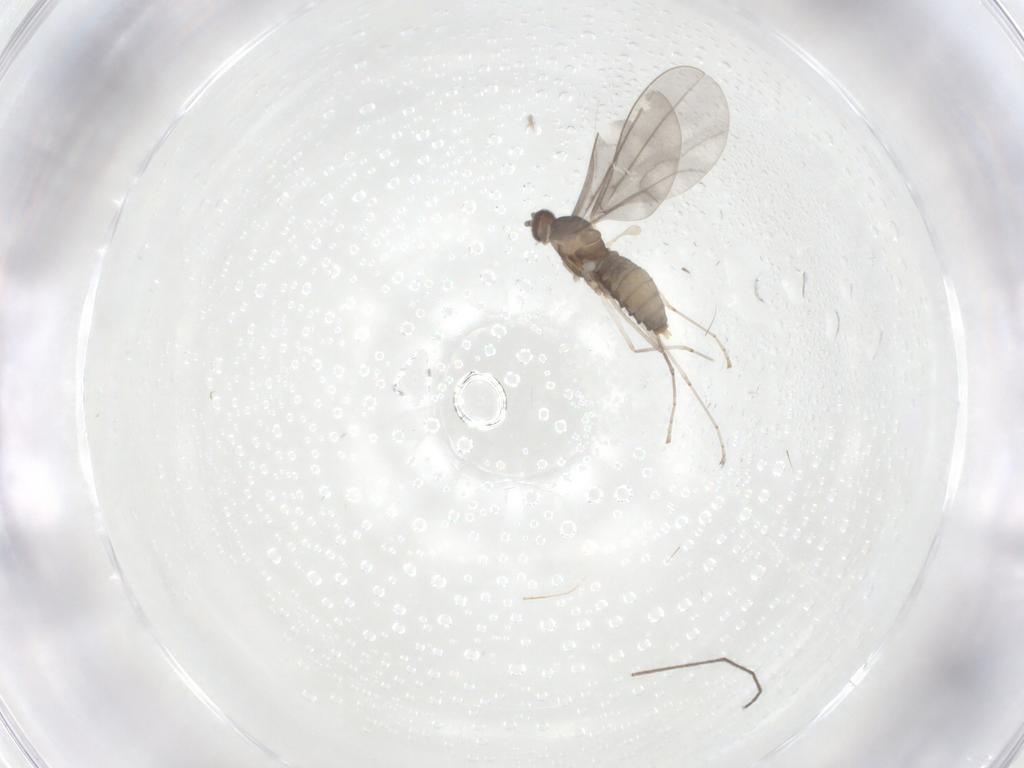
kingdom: Animalia
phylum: Arthropoda
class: Insecta
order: Diptera
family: Cecidomyiidae
